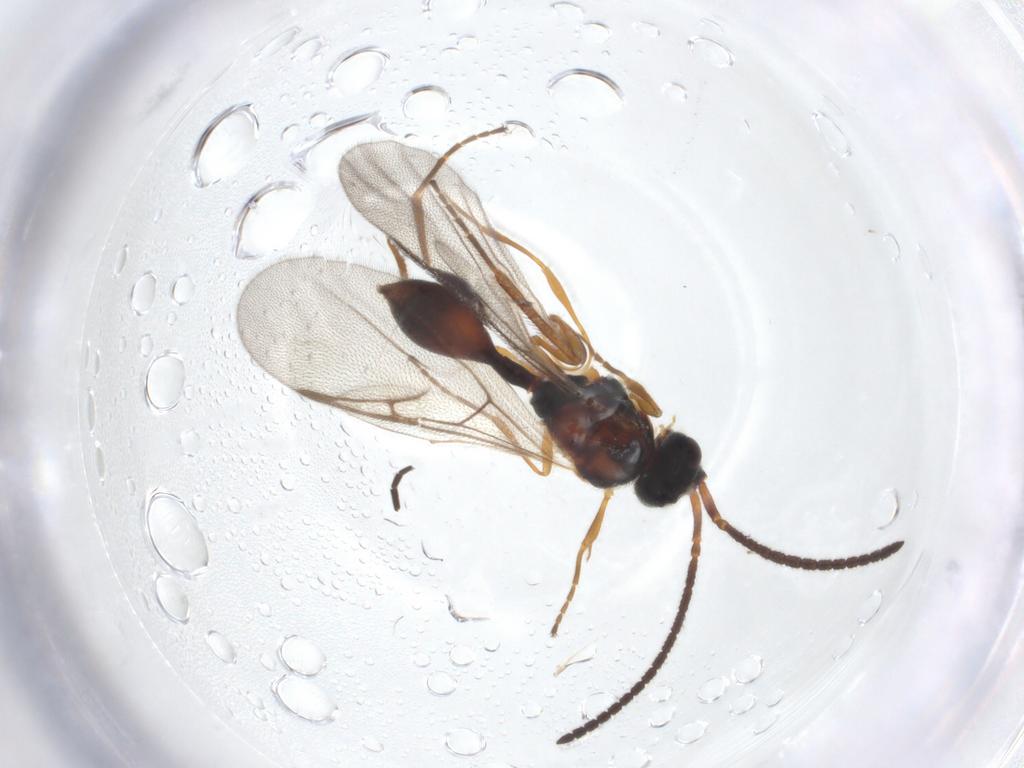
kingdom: Animalia
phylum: Arthropoda
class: Insecta
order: Hymenoptera
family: Diapriidae
